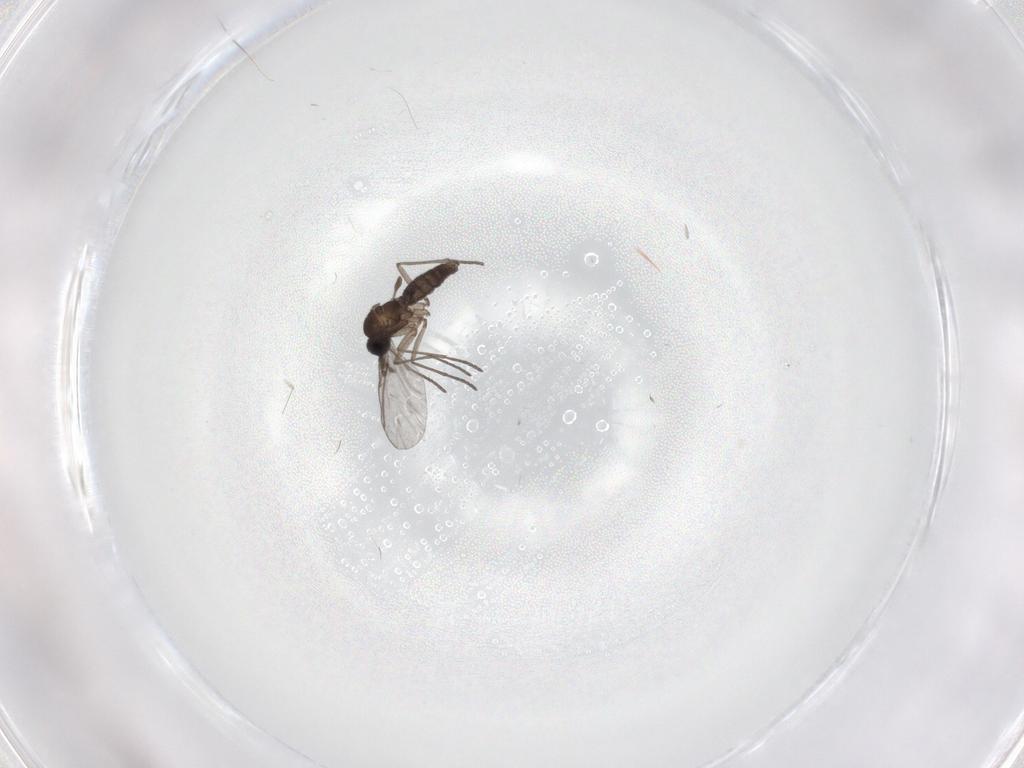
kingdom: Animalia
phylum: Arthropoda
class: Insecta
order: Diptera
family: Sciaridae
